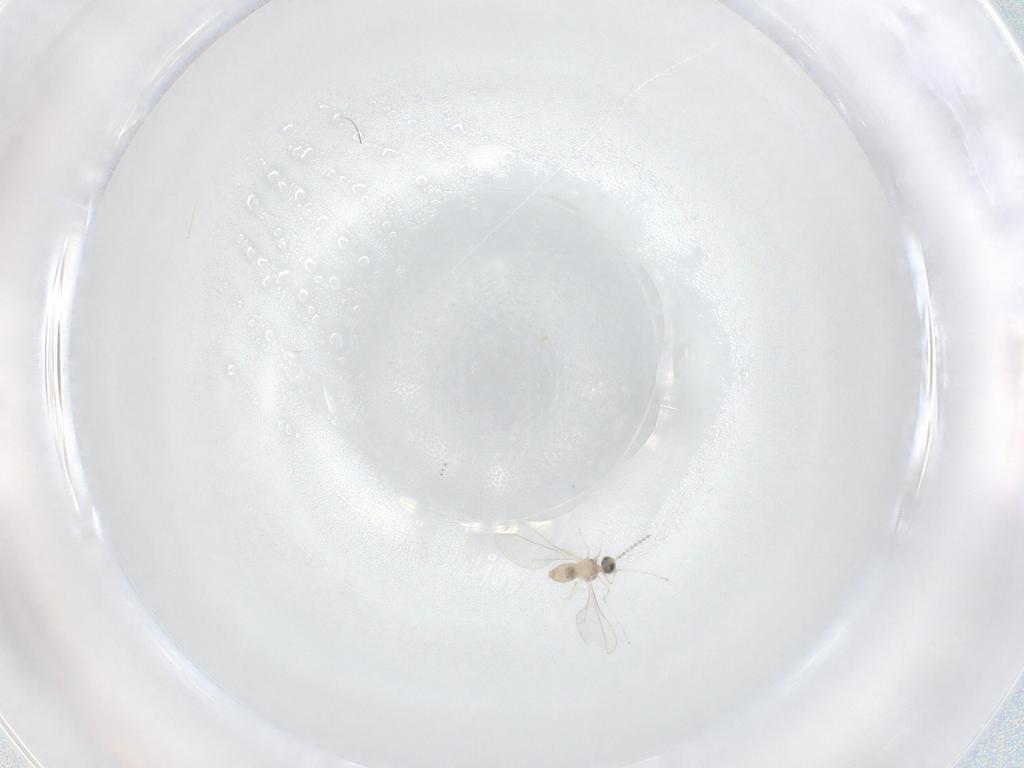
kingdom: Animalia
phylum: Arthropoda
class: Insecta
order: Diptera
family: Cecidomyiidae
